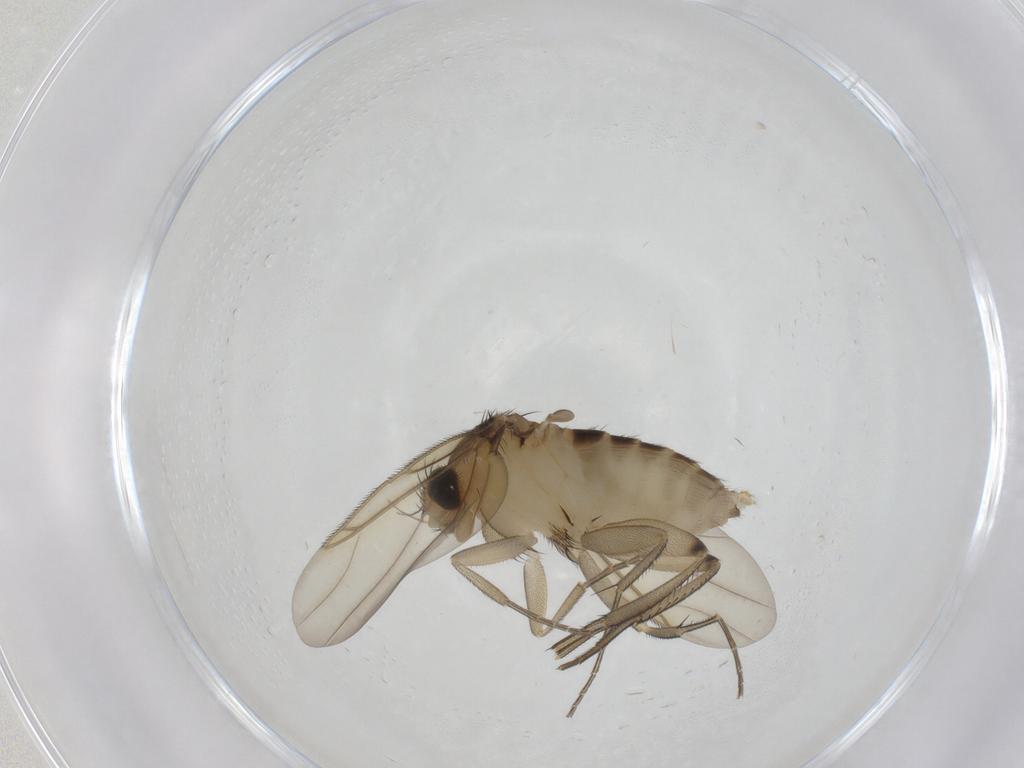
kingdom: Animalia
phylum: Arthropoda
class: Insecta
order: Diptera
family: Phoridae
